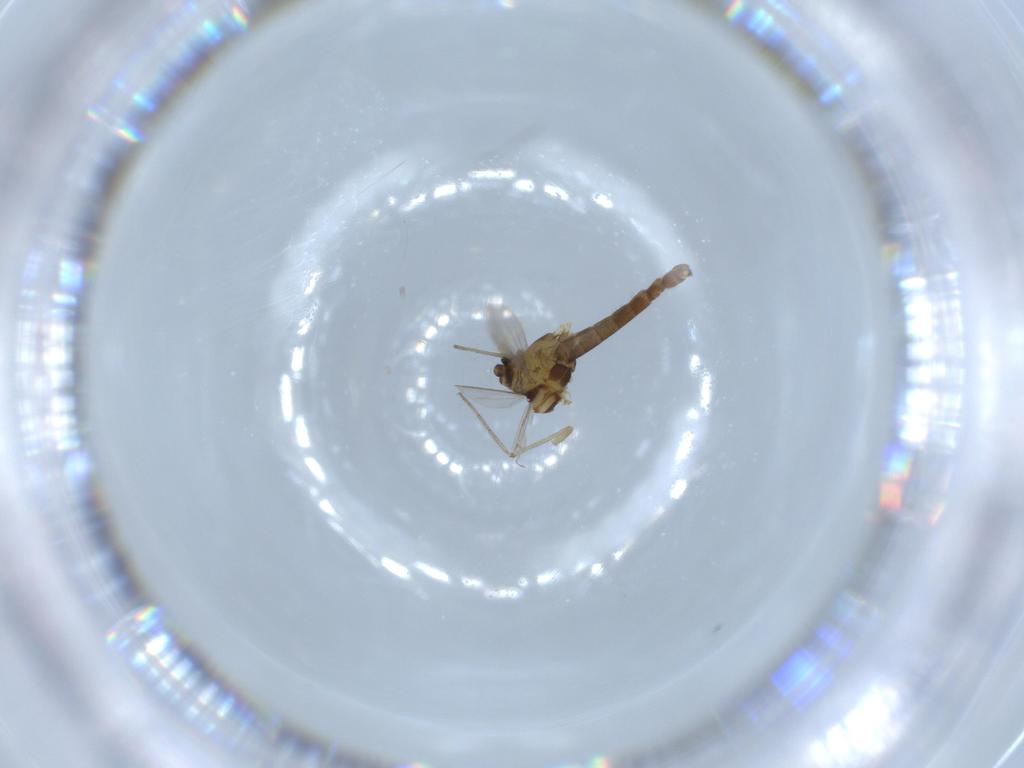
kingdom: Animalia
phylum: Arthropoda
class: Insecta
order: Diptera
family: Chironomidae
